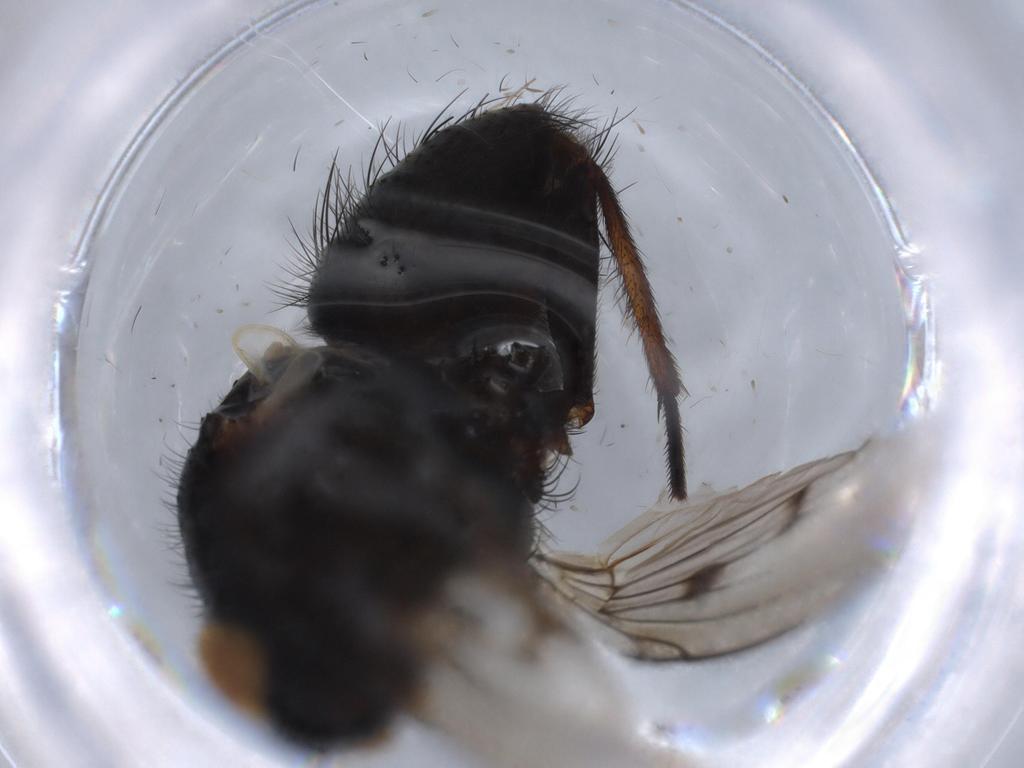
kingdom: Animalia
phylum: Arthropoda
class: Insecta
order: Diptera
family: Muscidae
